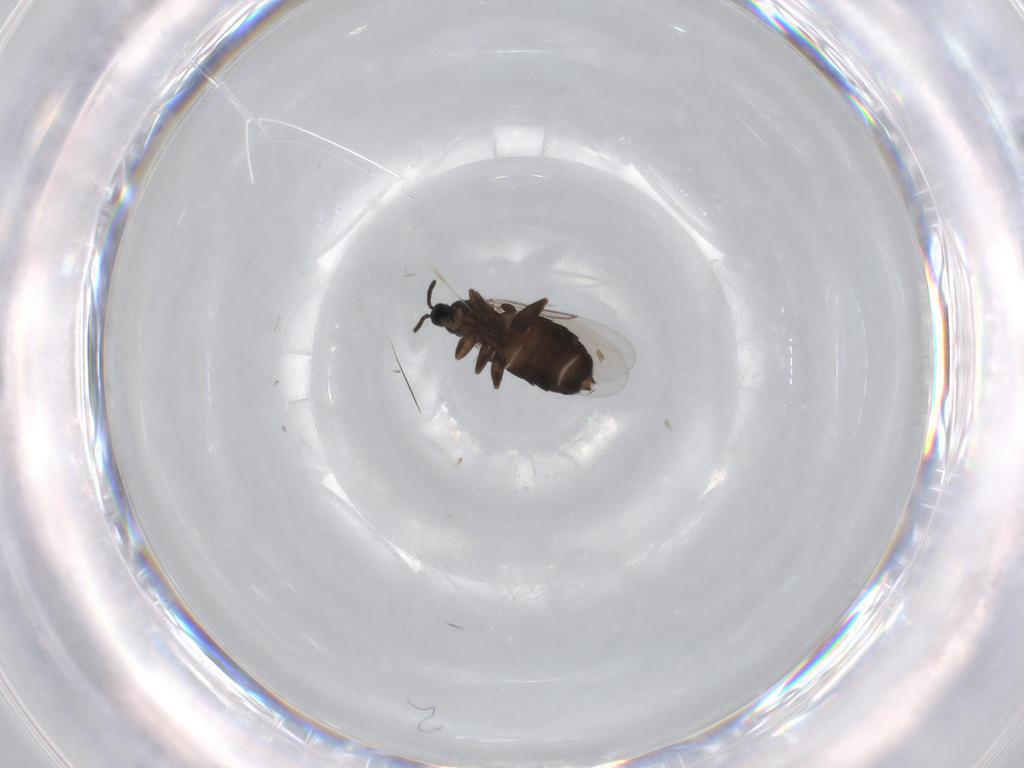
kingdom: Animalia
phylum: Arthropoda
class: Insecta
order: Diptera
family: Scatopsidae
